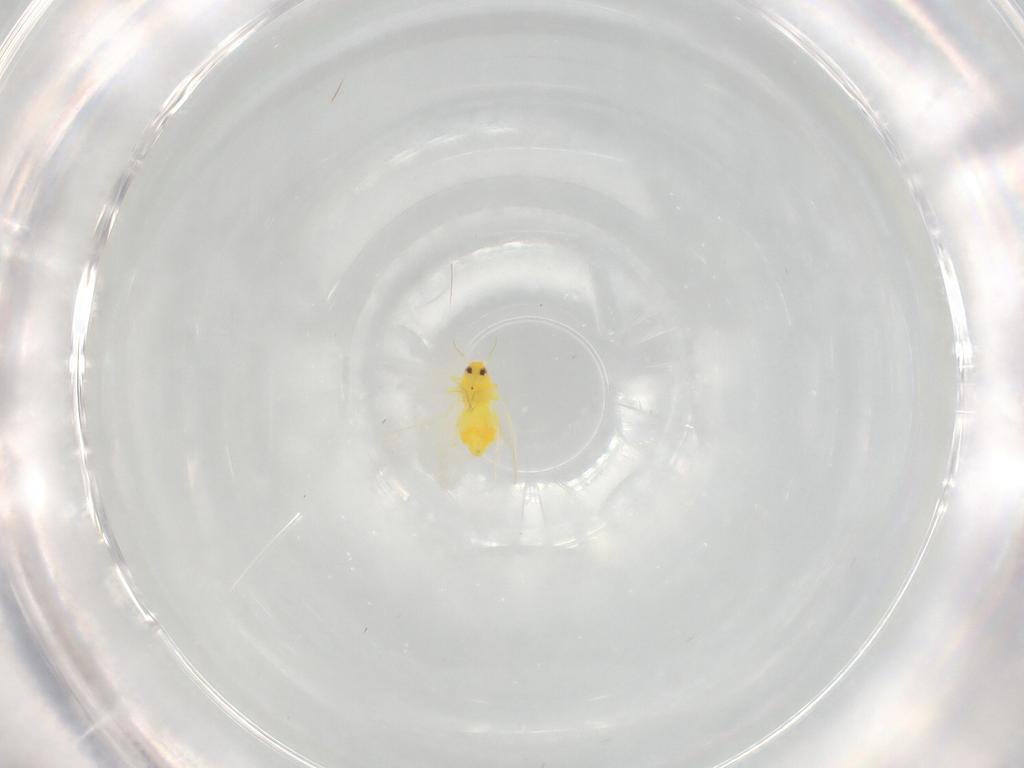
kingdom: Animalia
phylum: Arthropoda
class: Insecta
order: Hemiptera
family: Aleyrodidae
